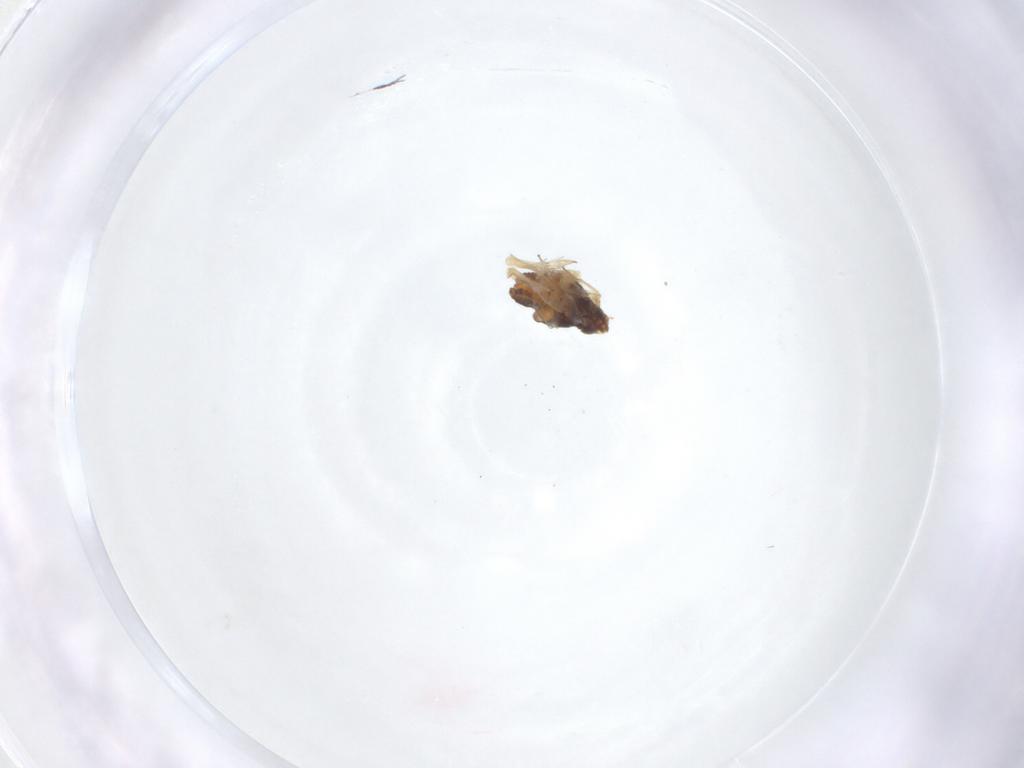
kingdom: Animalia
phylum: Arthropoda
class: Insecta
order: Hemiptera
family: Delphacidae
